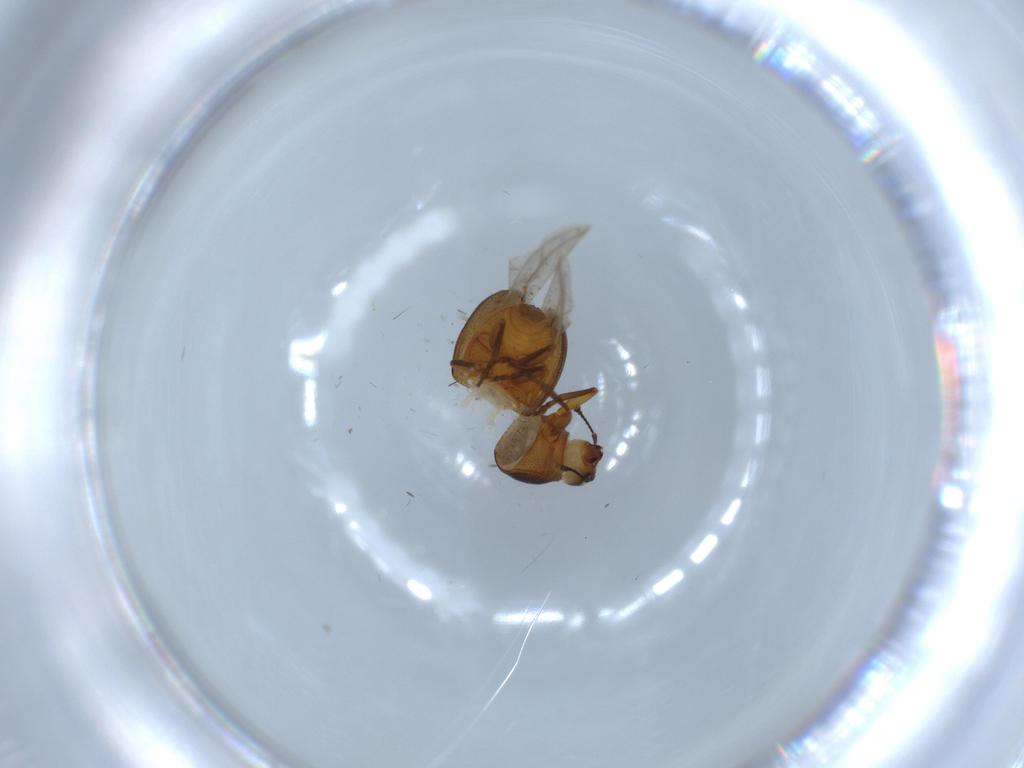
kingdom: Animalia
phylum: Arthropoda
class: Insecta
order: Coleoptera
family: Anthribidae
